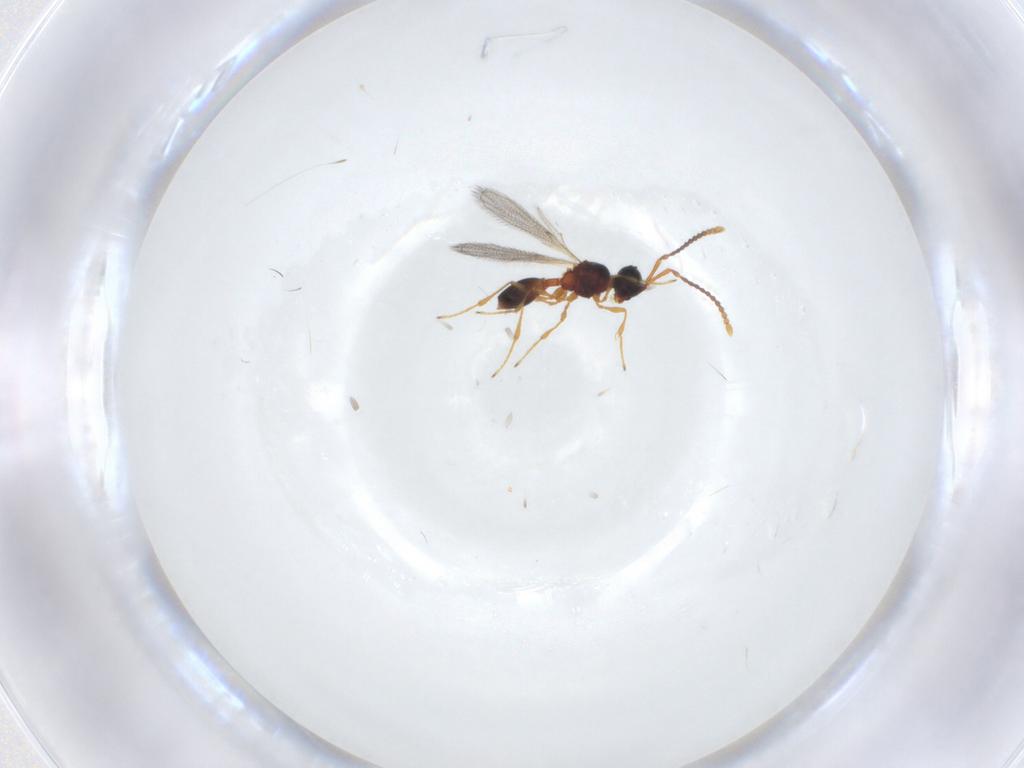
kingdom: Animalia
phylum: Arthropoda
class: Insecta
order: Hymenoptera
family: Diapriidae
